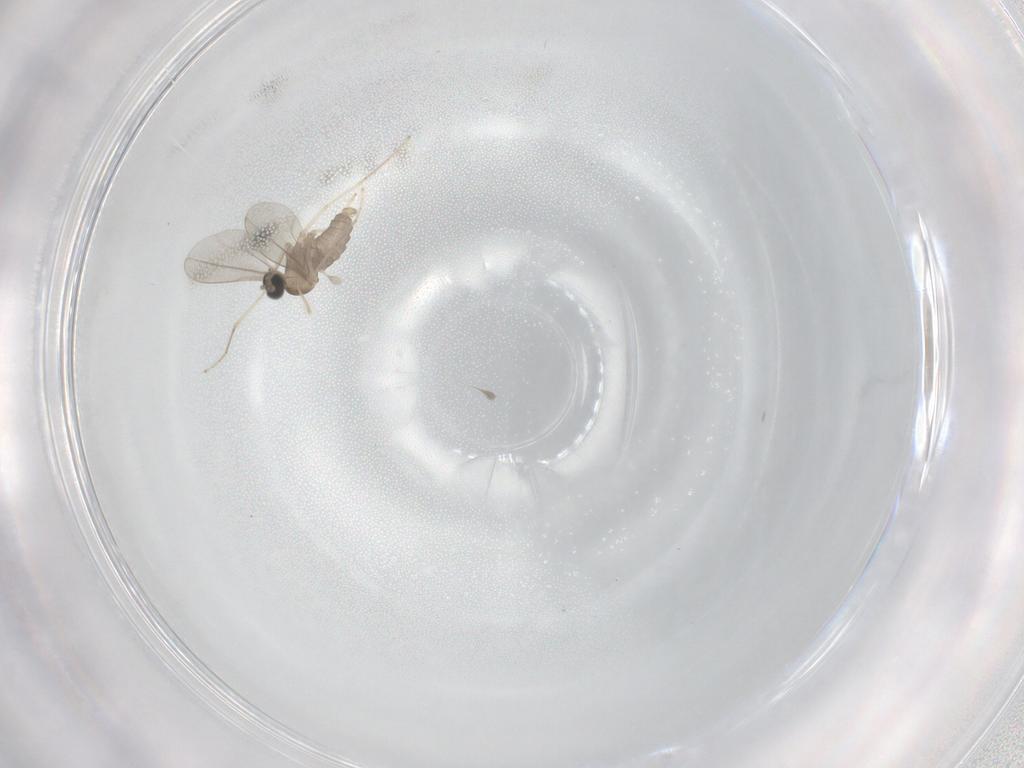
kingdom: Animalia
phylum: Arthropoda
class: Insecta
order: Diptera
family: Cecidomyiidae
